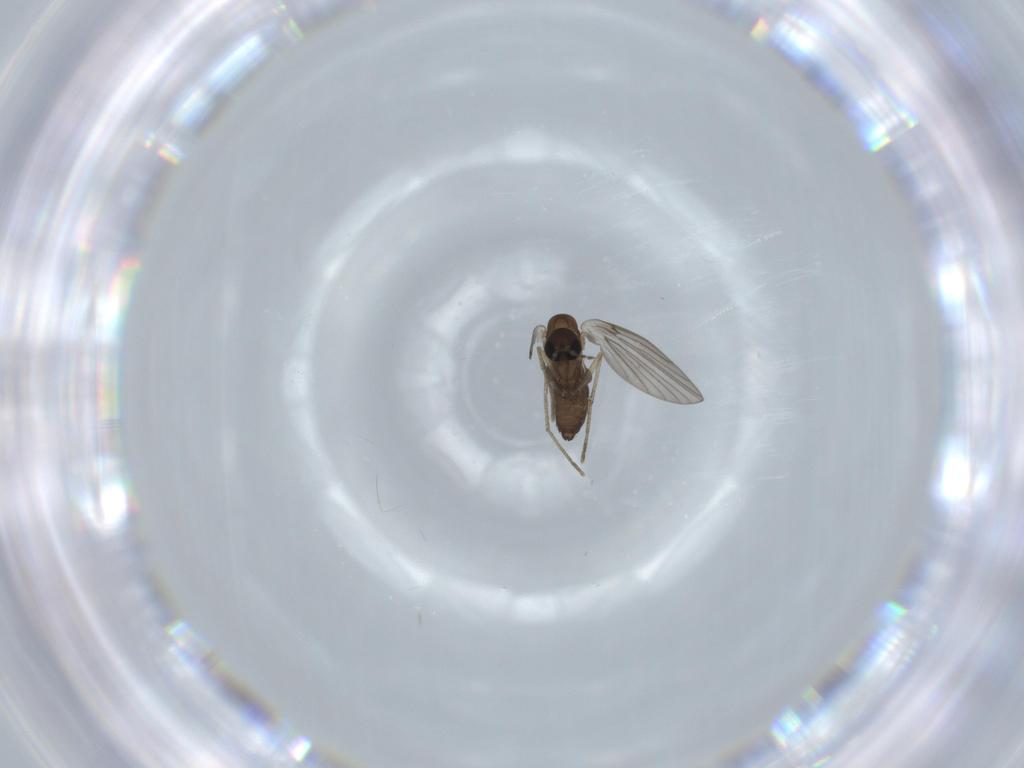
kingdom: Animalia
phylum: Arthropoda
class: Insecta
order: Diptera
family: Psychodidae
